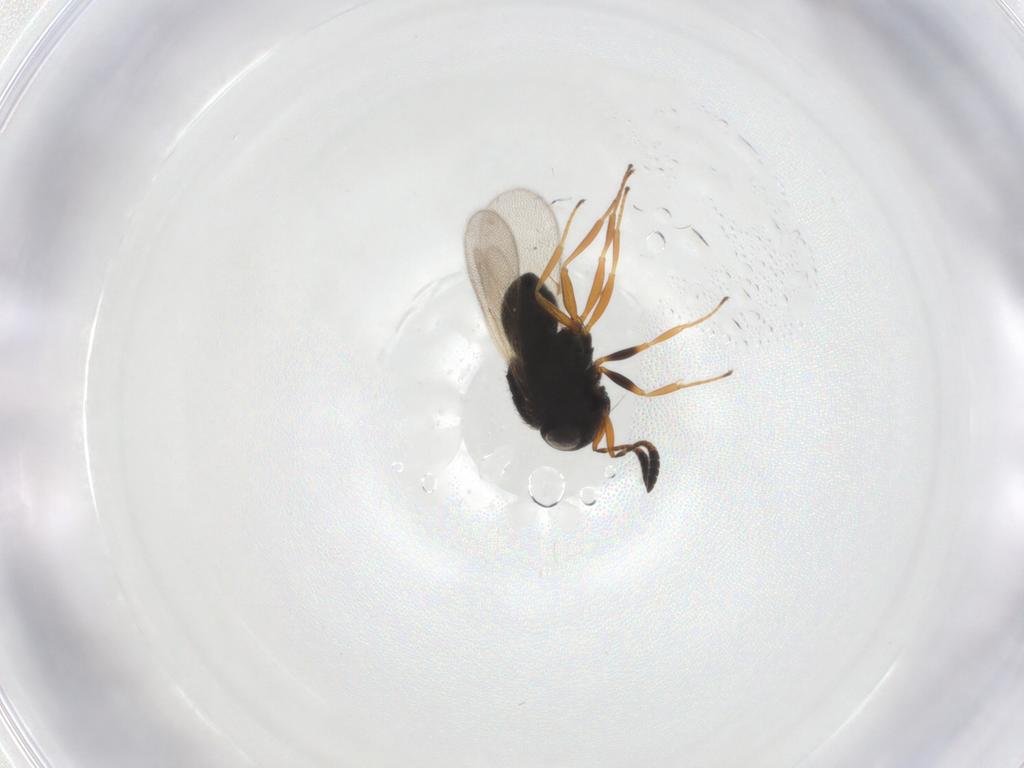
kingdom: Animalia
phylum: Arthropoda
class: Insecta
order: Hymenoptera
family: Scelionidae
